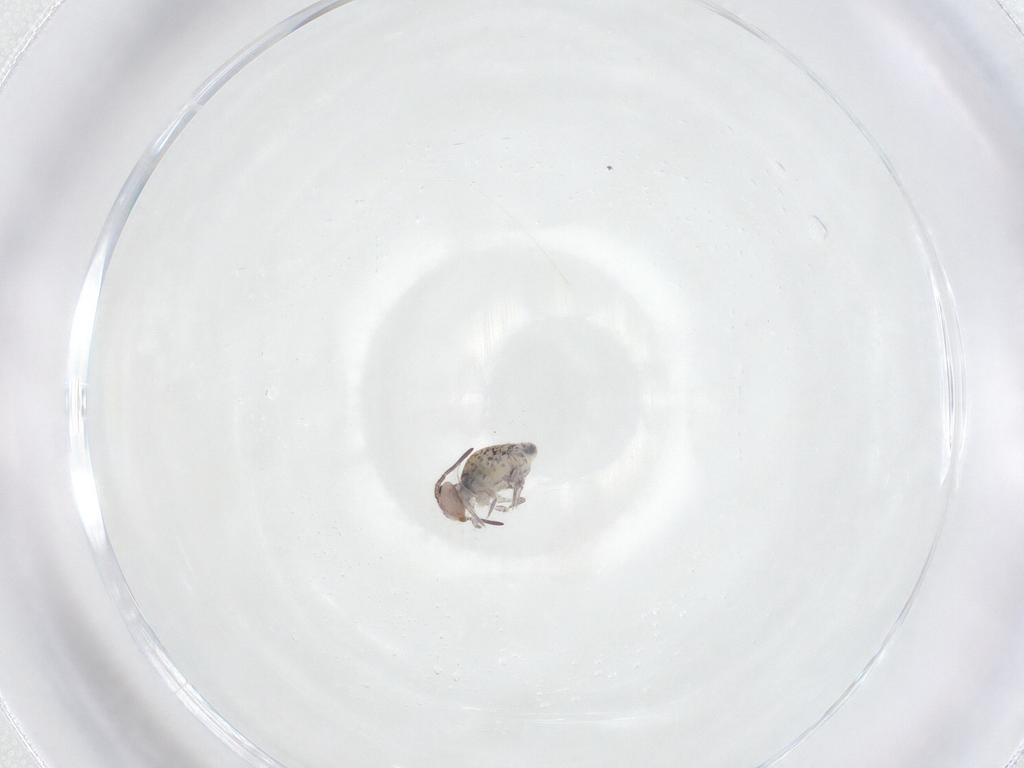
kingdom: Animalia
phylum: Arthropoda
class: Collembola
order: Symphypleona
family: Bourletiellidae
